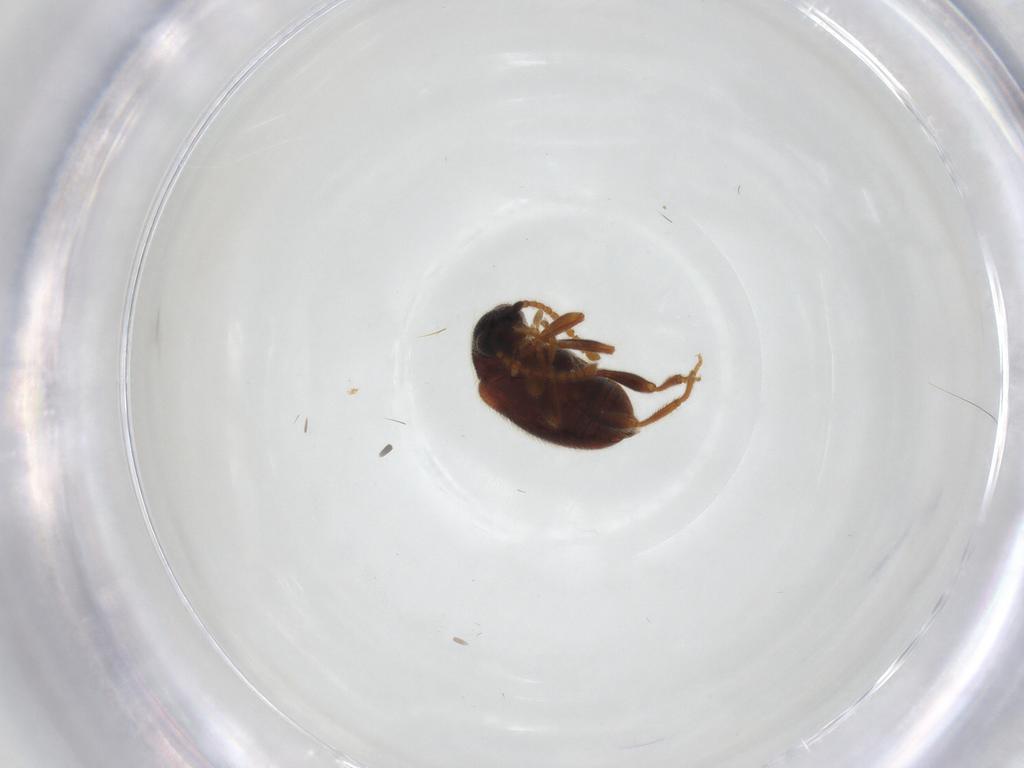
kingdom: Animalia
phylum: Arthropoda
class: Insecta
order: Coleoptera
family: Aderidae
